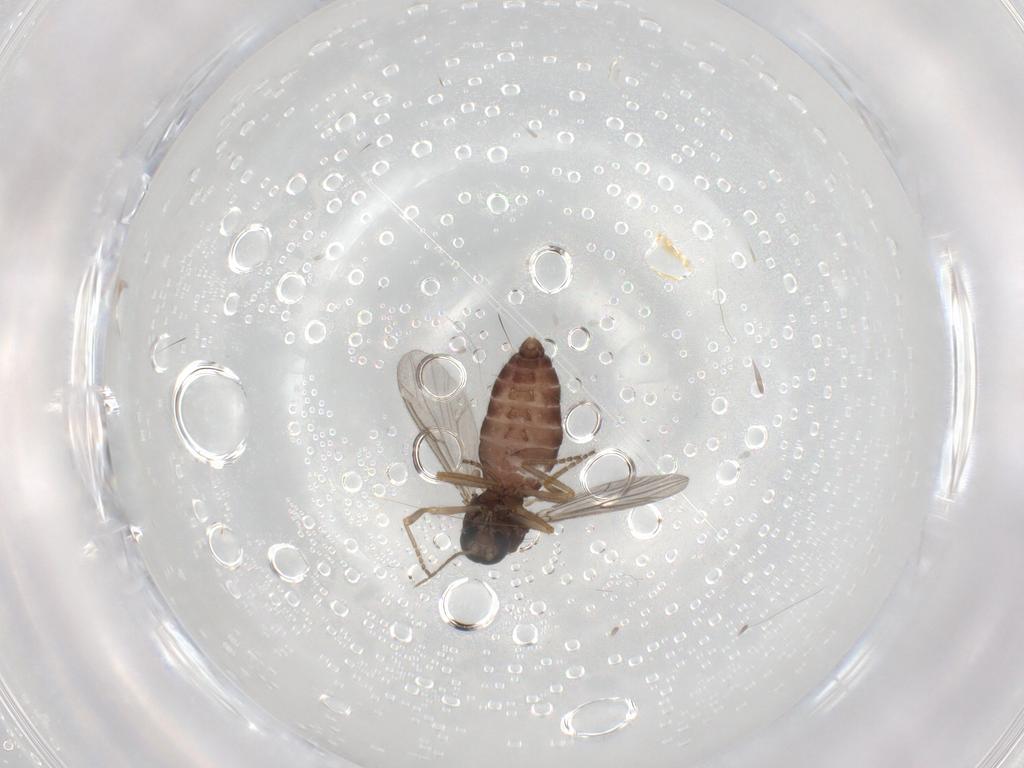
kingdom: Animalia
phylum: Arthropoda
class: Insecta
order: Diptera
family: Ceratopogonidae
